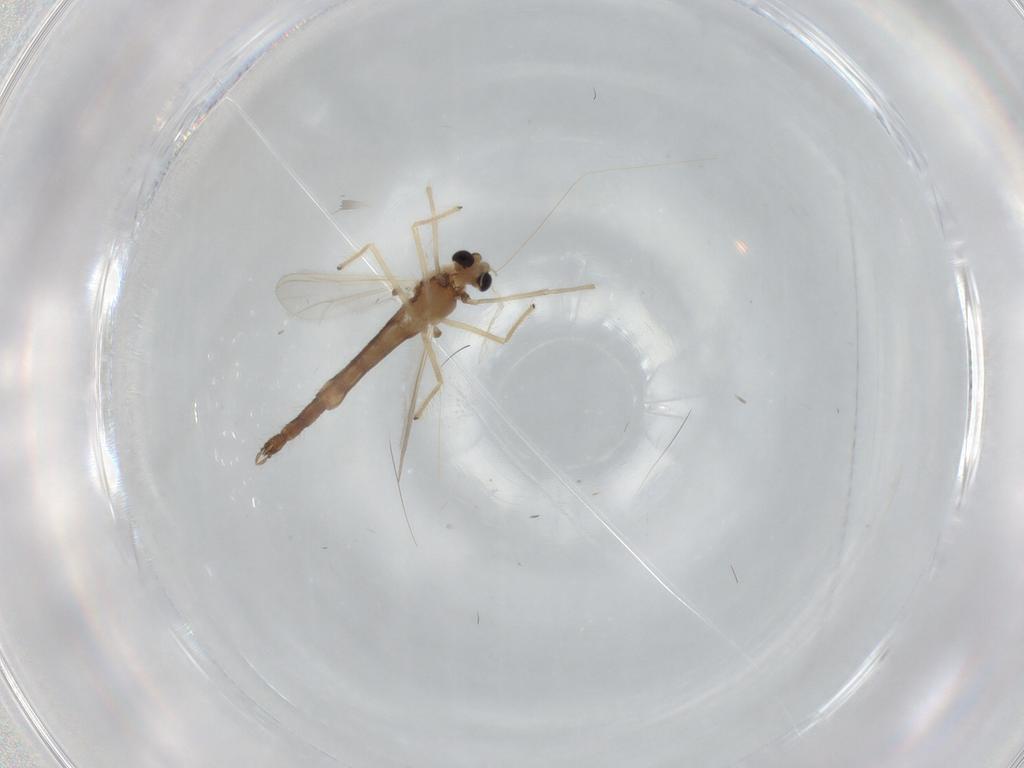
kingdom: Animalia
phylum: Arthropoda
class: Insecta
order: Diptera
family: Chironomidae
